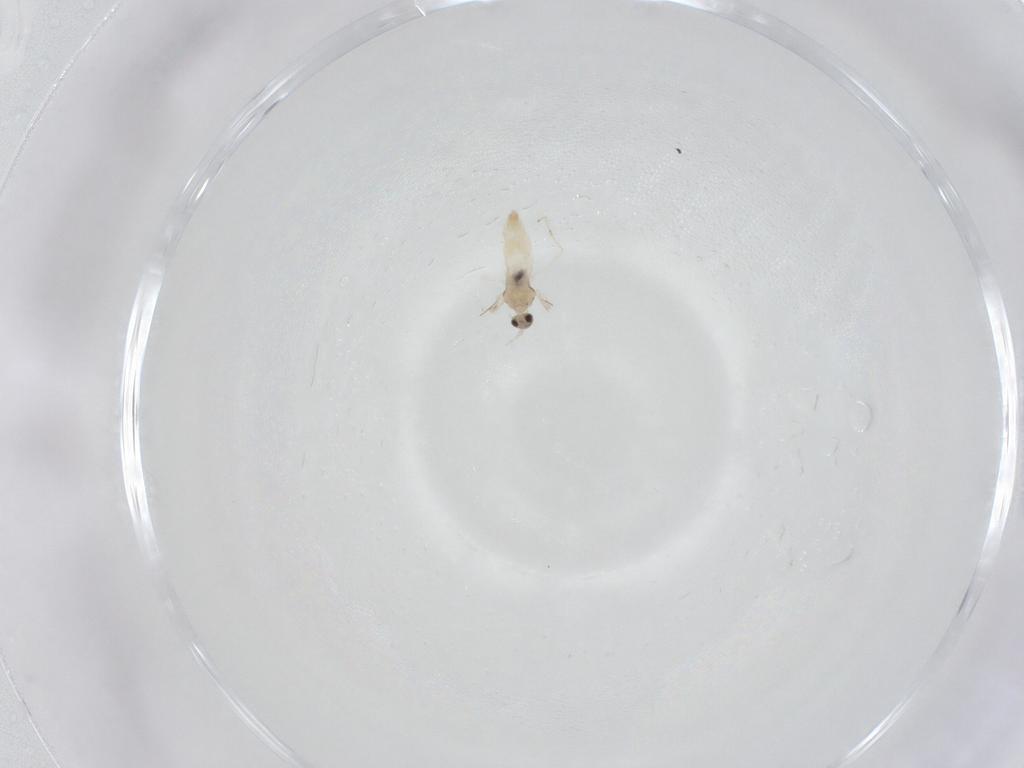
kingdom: Animalia
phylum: Arthropoda
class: Insecta
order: Diptera
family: Cecidomyiidae
